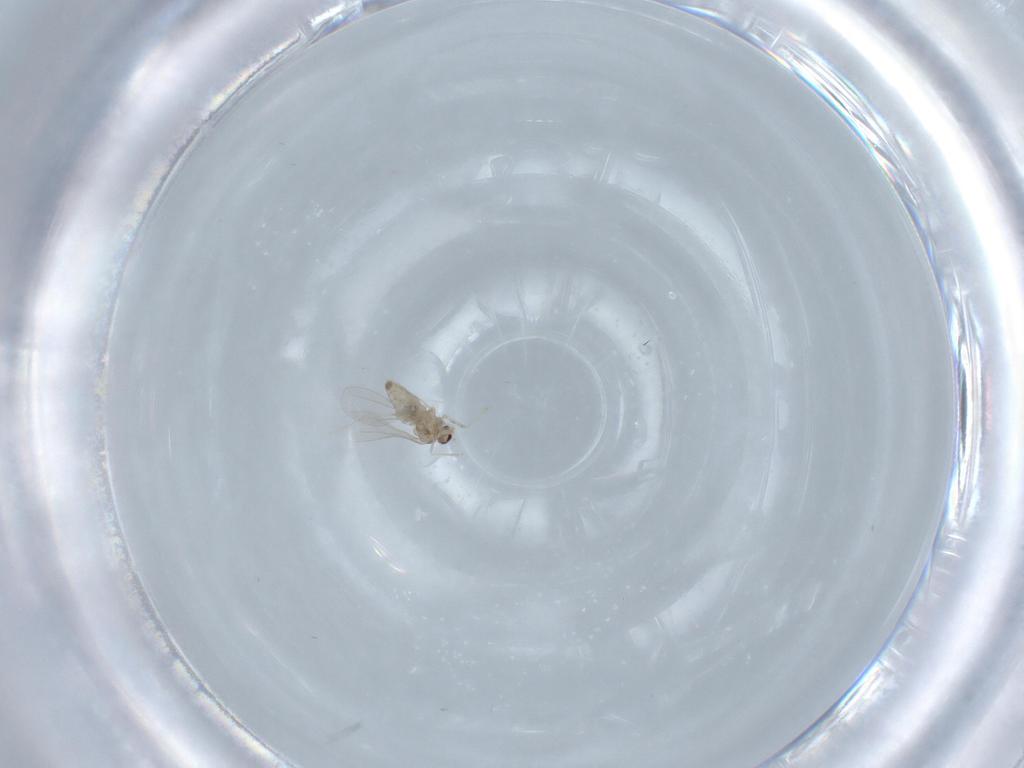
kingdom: Animalia
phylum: Arthropoda
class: Insecta
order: Diptera
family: Cecidomyiidae
